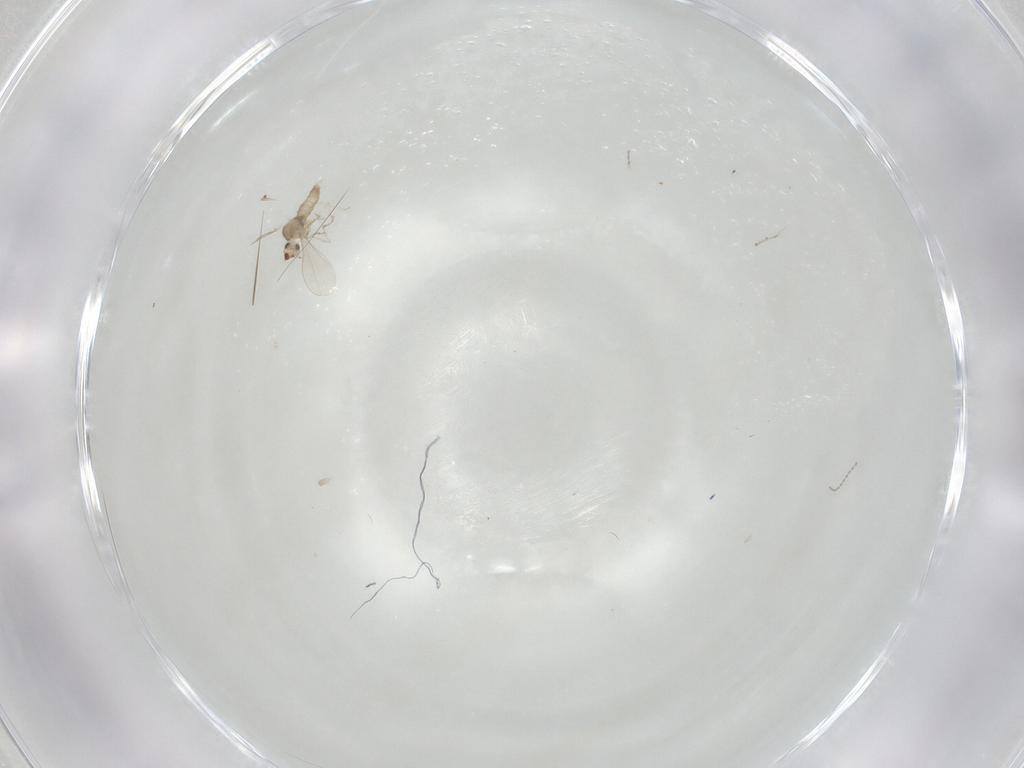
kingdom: Animalia
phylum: Arthropoda
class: Insecta
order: Diptera
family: Cecidomyiidae
